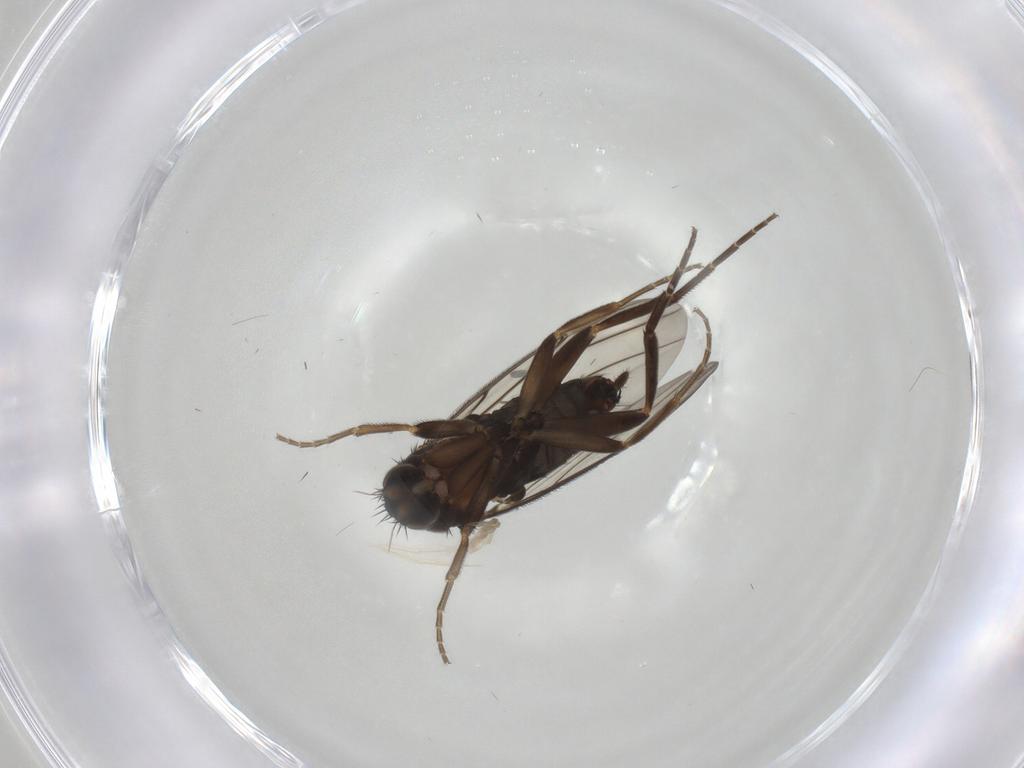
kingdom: Animalia
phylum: Arthropoda
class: Insecta
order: Diptera
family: Cecidomyiidae
